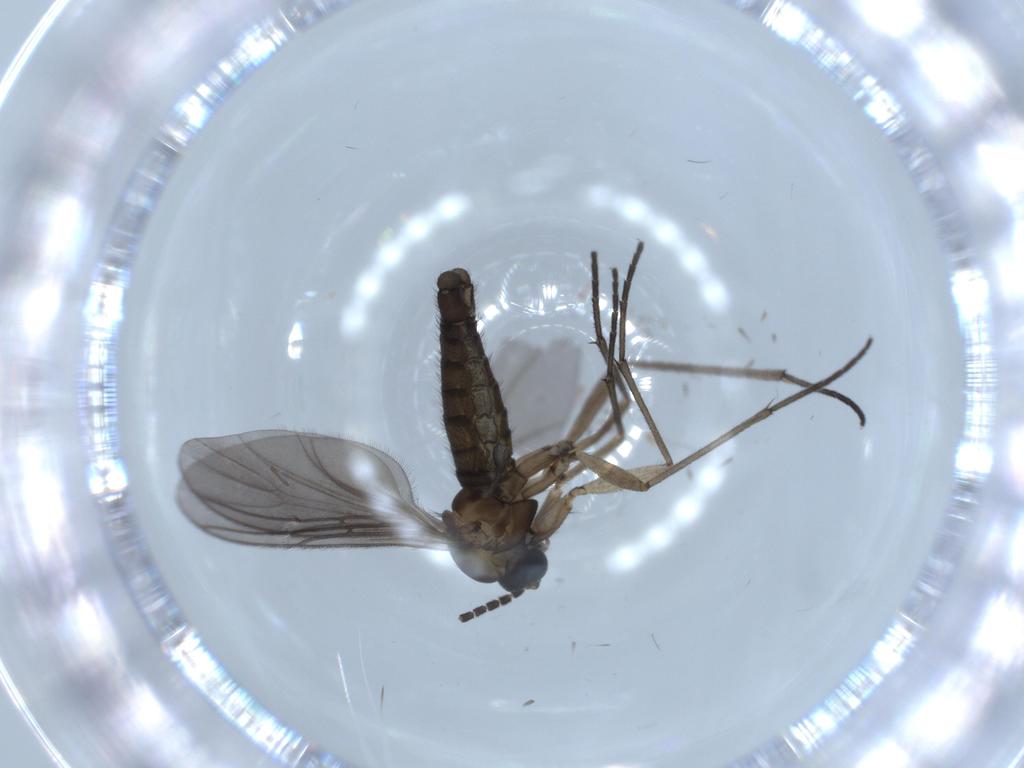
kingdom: Animalia
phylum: Arthropoda
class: Insecta
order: Diptera
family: Sciaridae
